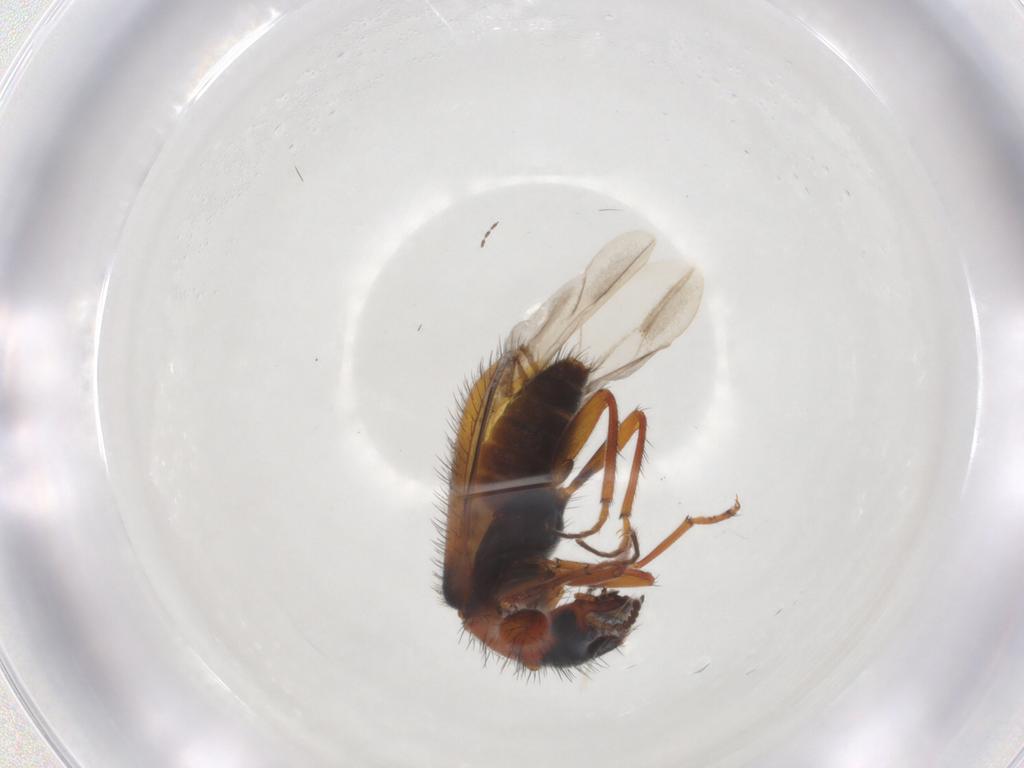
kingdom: Animalia
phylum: Arthropoda
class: Insecta
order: Coleoptera
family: Melyridae
